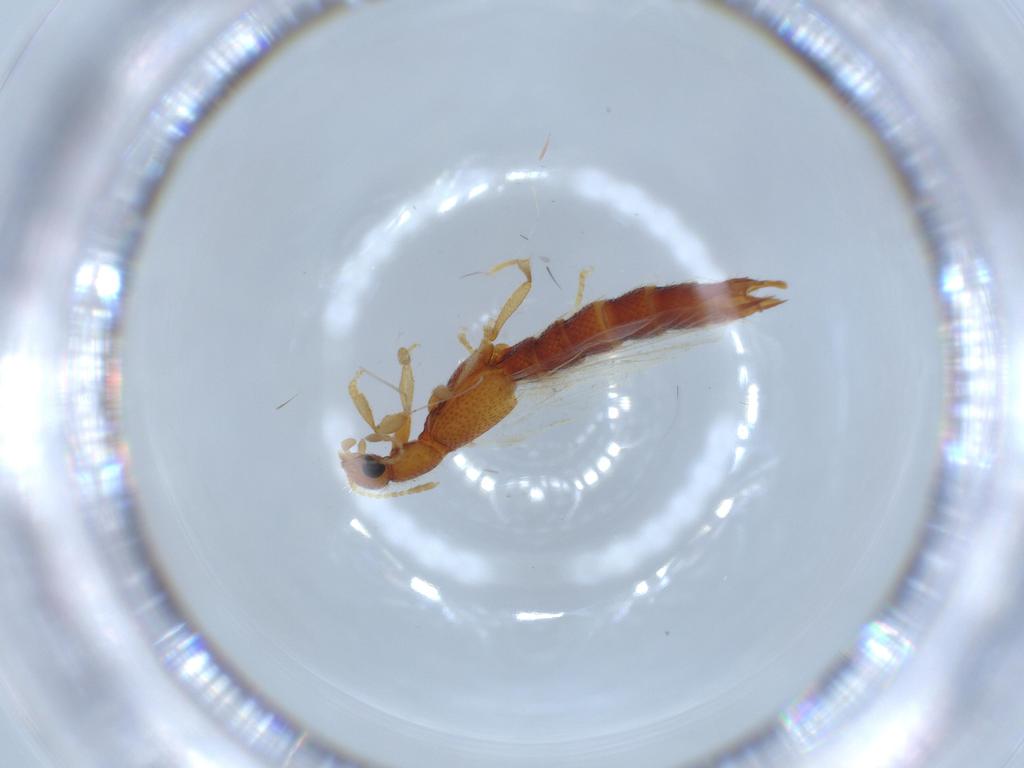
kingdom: Animalia
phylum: Arthropoda
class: Insecta
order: Coleoptera
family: Staphylinidae
